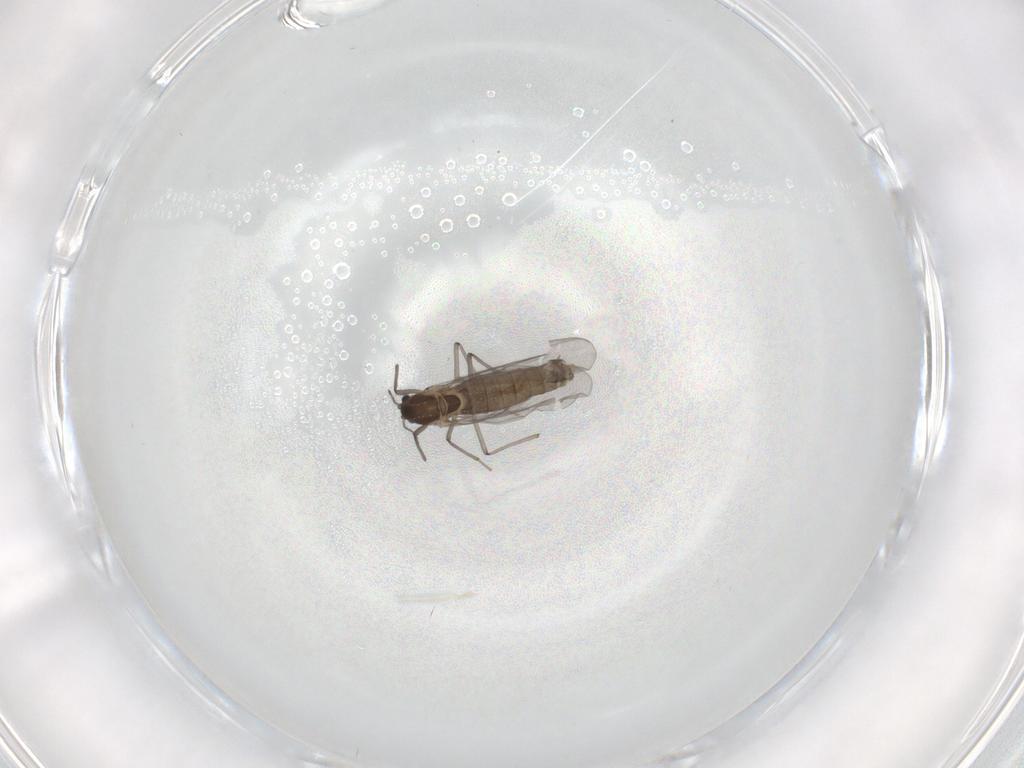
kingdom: Animalia
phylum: Arthropoda
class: Insecta
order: Diptera
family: Chironomidae
